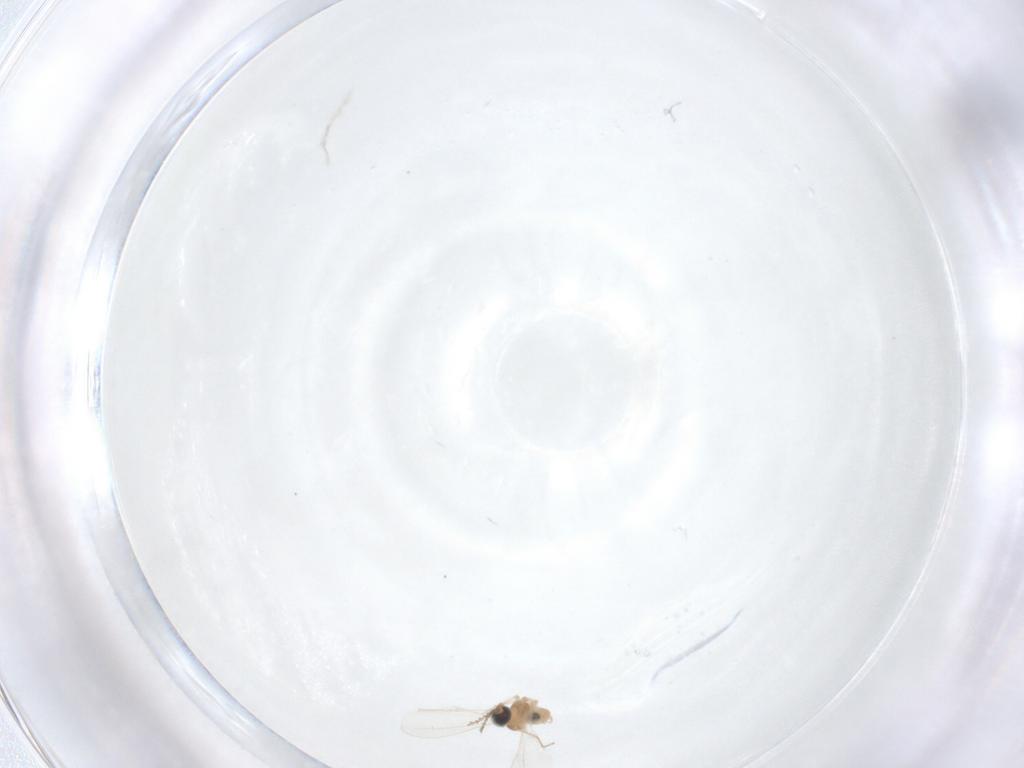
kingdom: Animalia
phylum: Arthropoda
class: Insecta
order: Diptera
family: Cecidomyiidae
